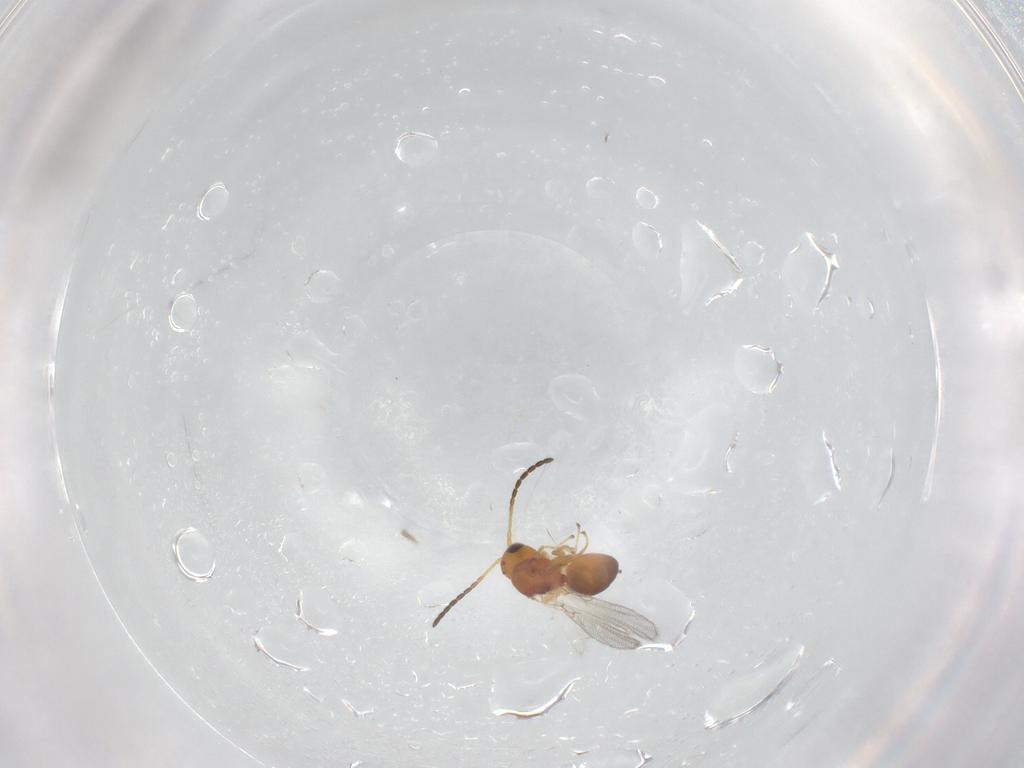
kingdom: Animalia
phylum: Arthropoda
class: Insecta
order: Hymenoptera
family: Figitidae
